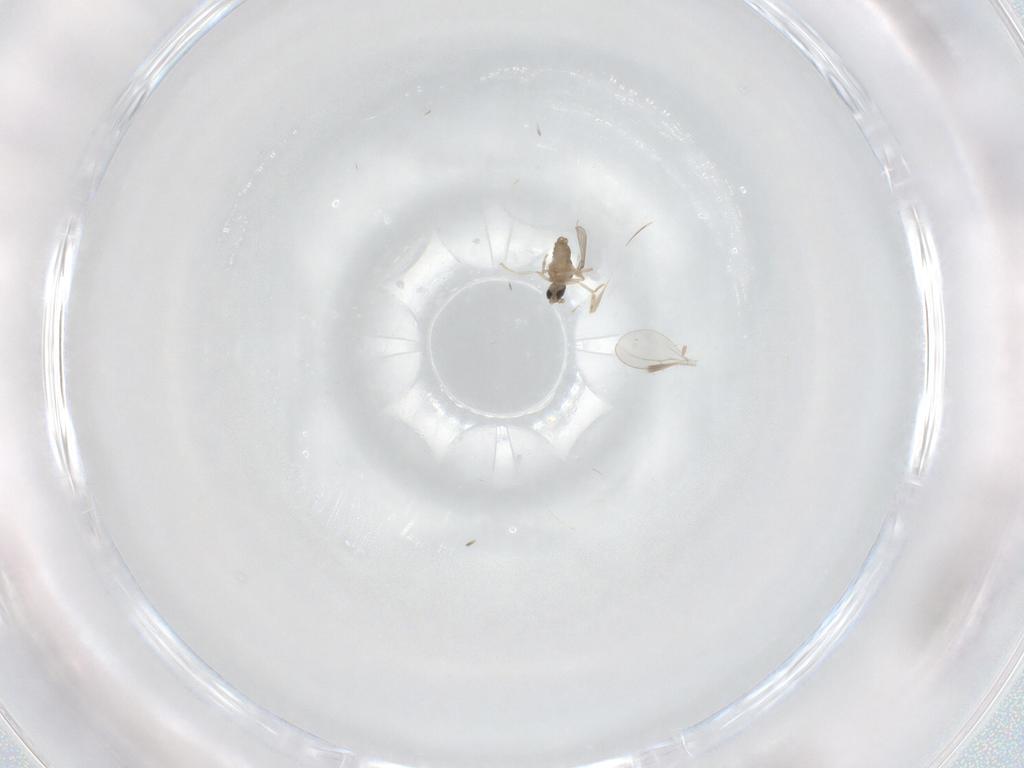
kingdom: Animalia
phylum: Arthropoda
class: Insecta
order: Diptera
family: Cecidomyiidae
